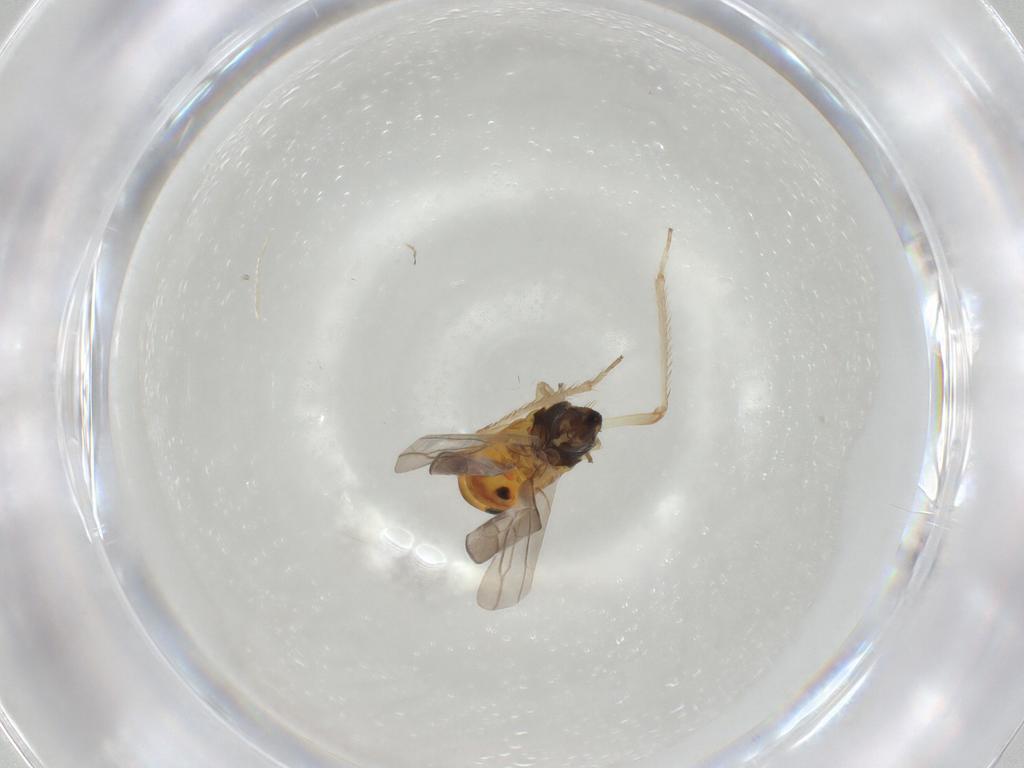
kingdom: Animalia
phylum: Arthropoda
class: Insecta
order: Hemiptera
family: Cicadellidae
